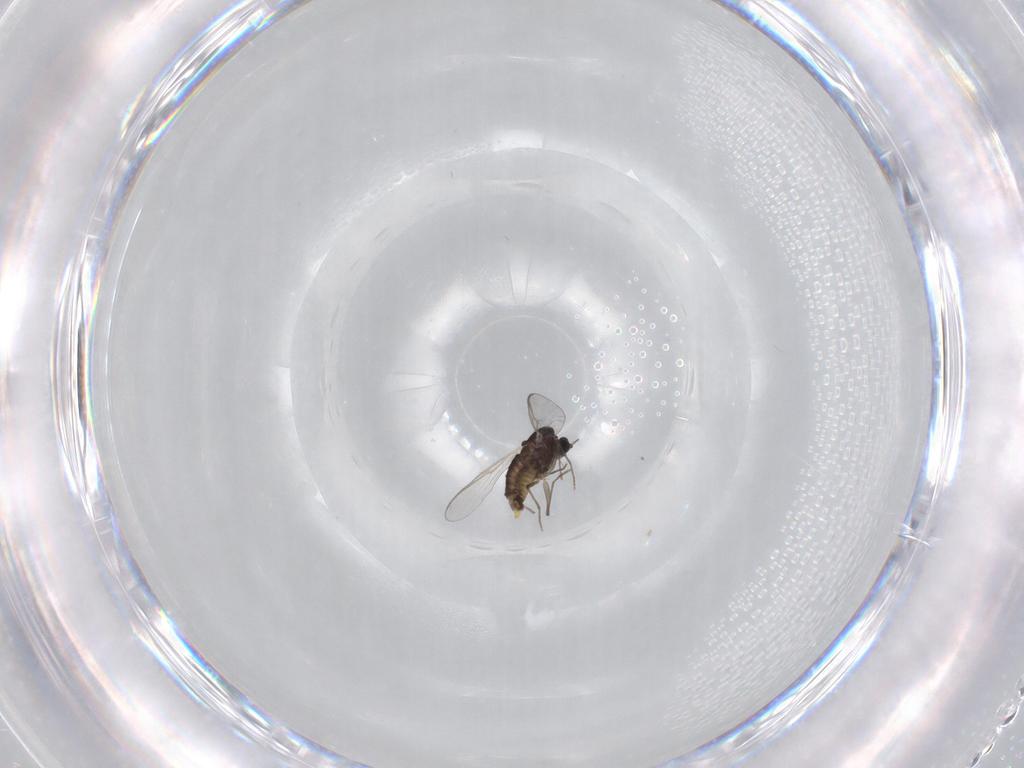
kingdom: Animalia
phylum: Arthropoda
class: Insecta
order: Diptera
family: Chironomidae
